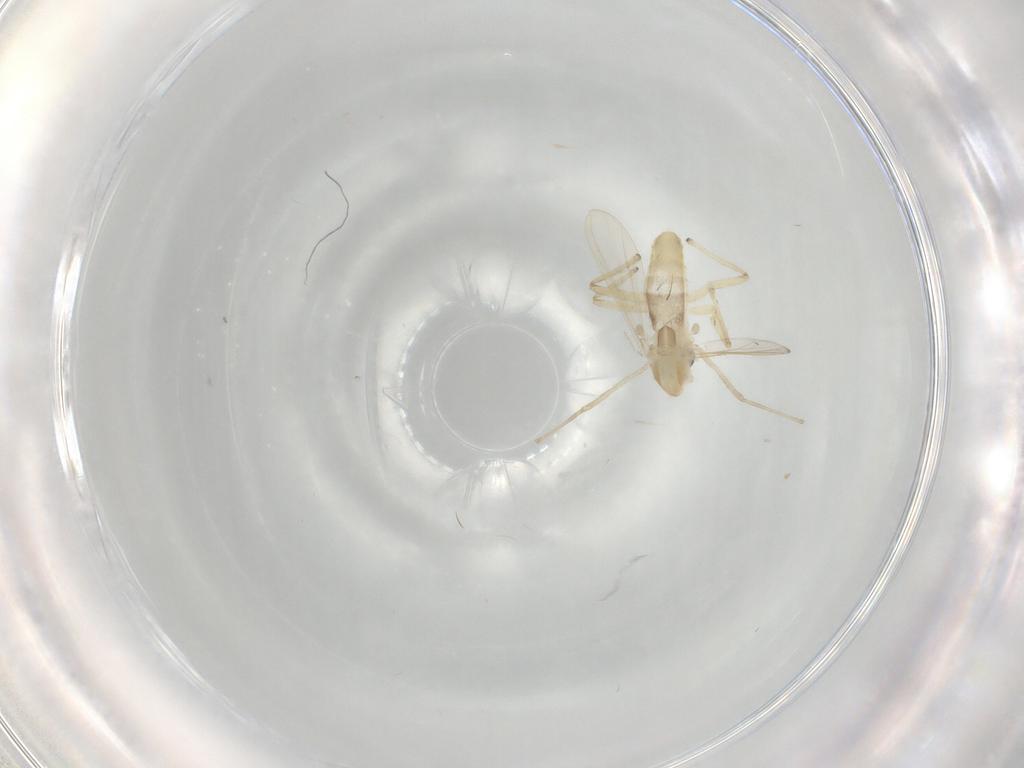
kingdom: Animalia
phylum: Arthropoda
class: Insecta
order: Diptera
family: Chironomidae
